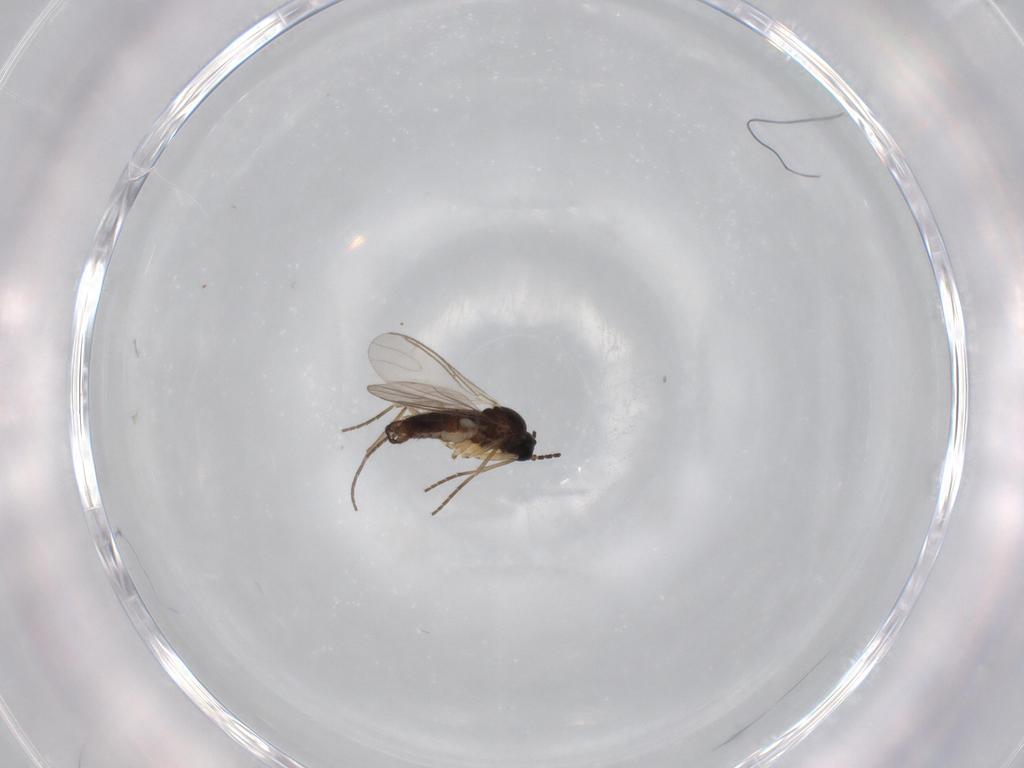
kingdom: Animalia
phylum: Arthropoda
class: Insecta
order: Diptera
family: Sciaridae
